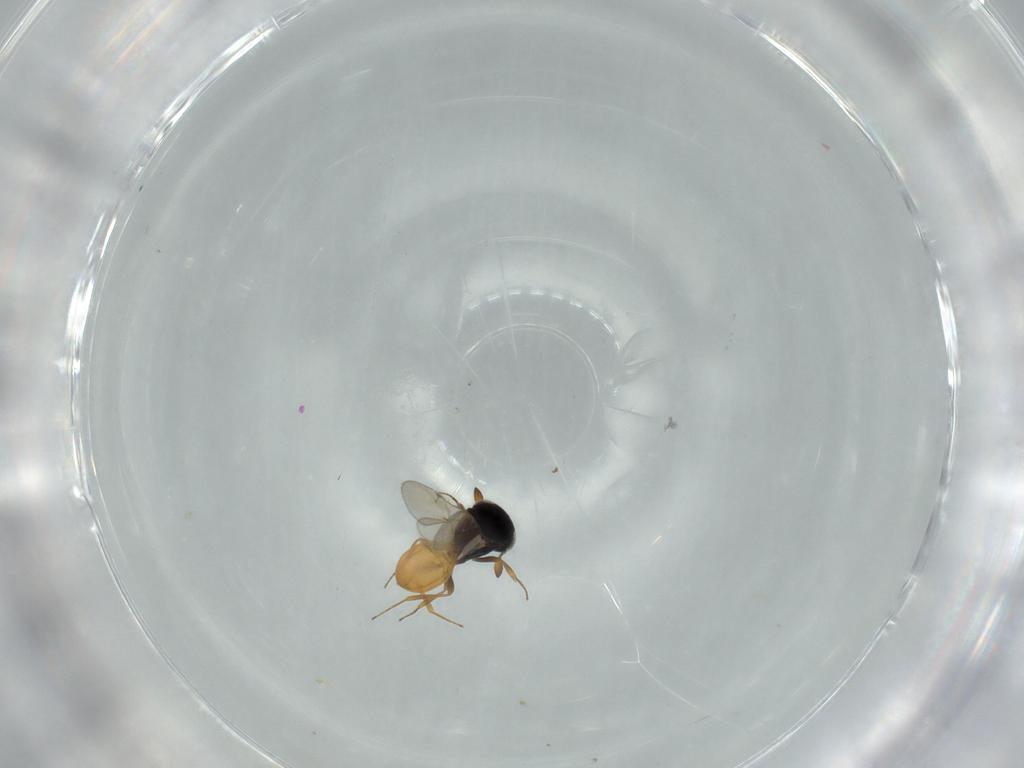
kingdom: Animalia
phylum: Arthropoda
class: Insecta
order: Hymenoptera
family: Scelionidae
